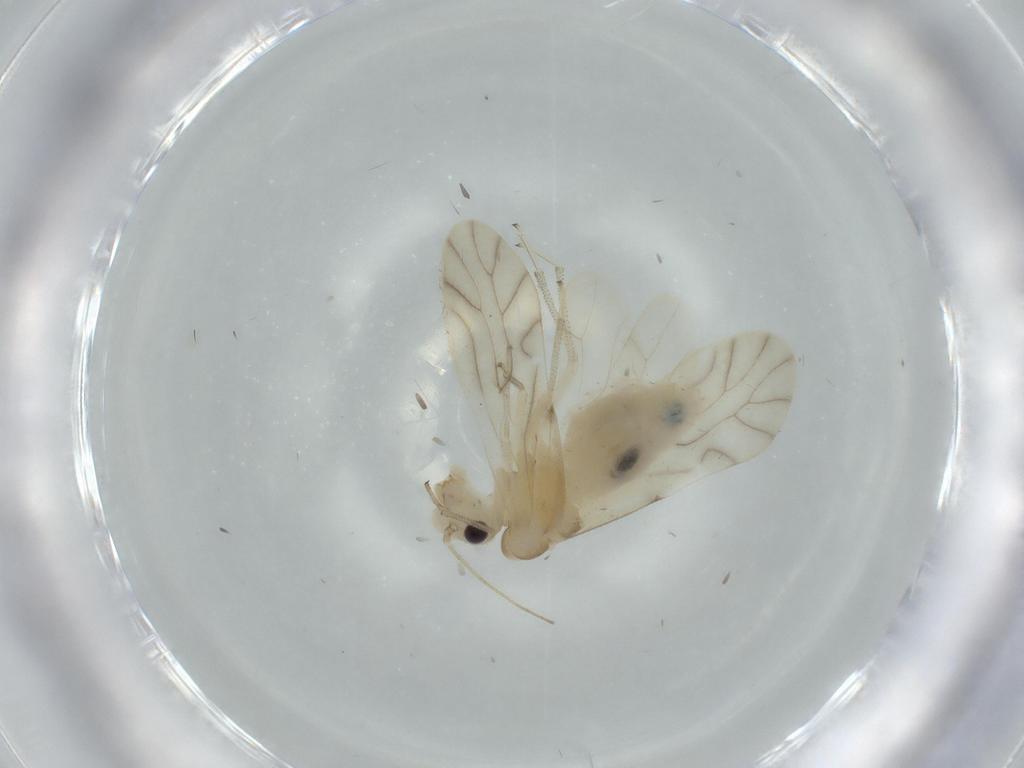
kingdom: Animalia
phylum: Arthropoda
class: Insecta
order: Psocodea
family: Caeciliusidae
